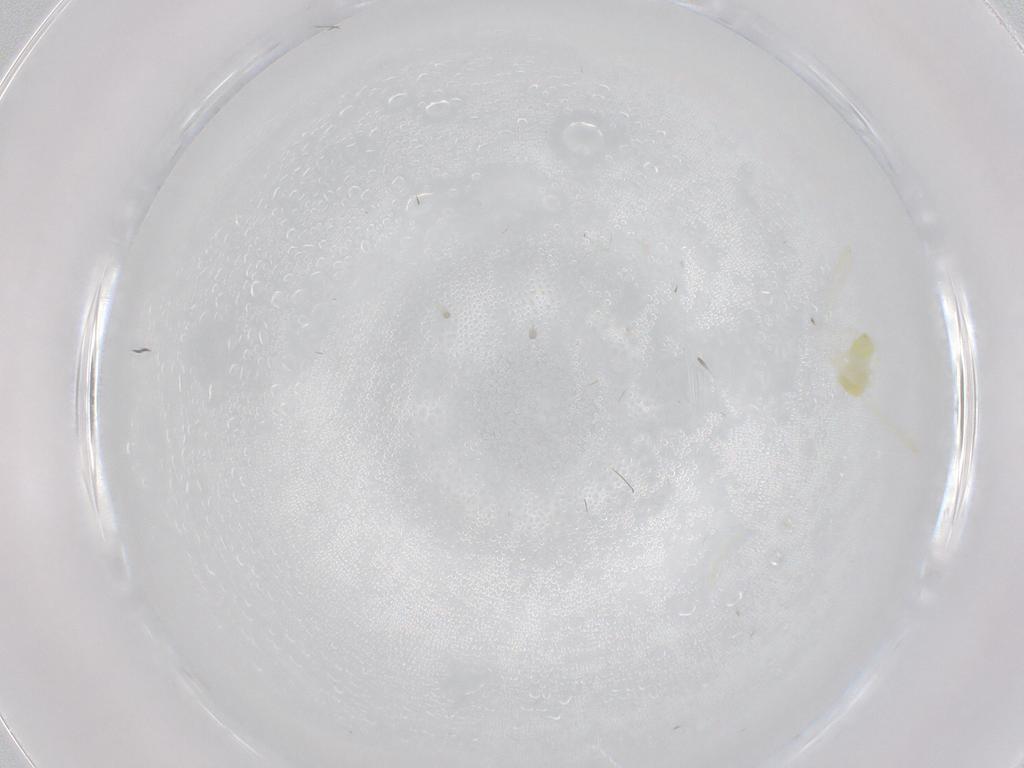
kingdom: Animalia
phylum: Arthropoda
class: Insecta
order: Hemiptera
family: Aleyrodidae
